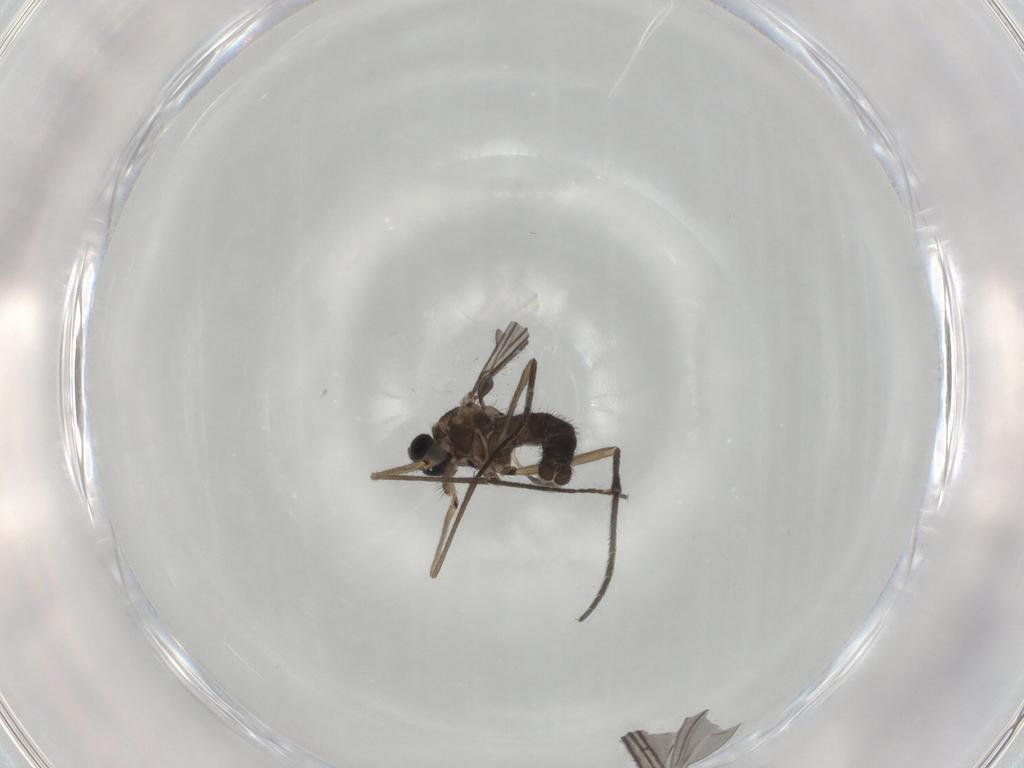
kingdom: Animalia
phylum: Arthropoda
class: Insecta
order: Diptera
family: Sciaridae
